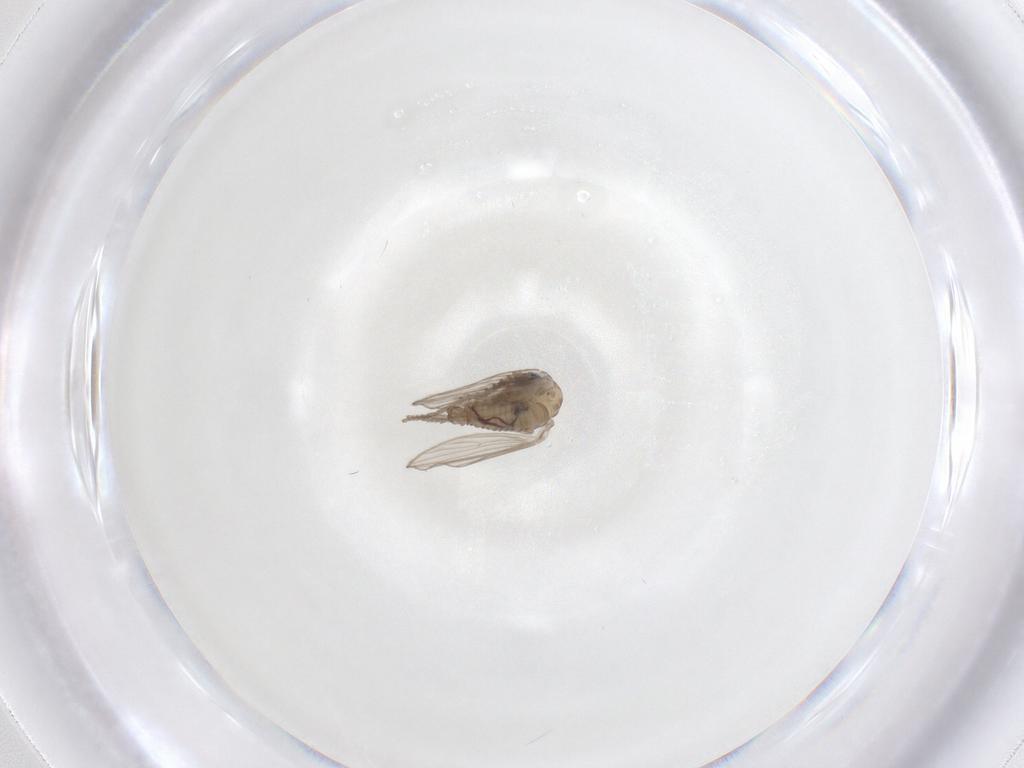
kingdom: Animalia
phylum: Arthropoda
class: Insecta
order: Diptera
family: Psychodidae
